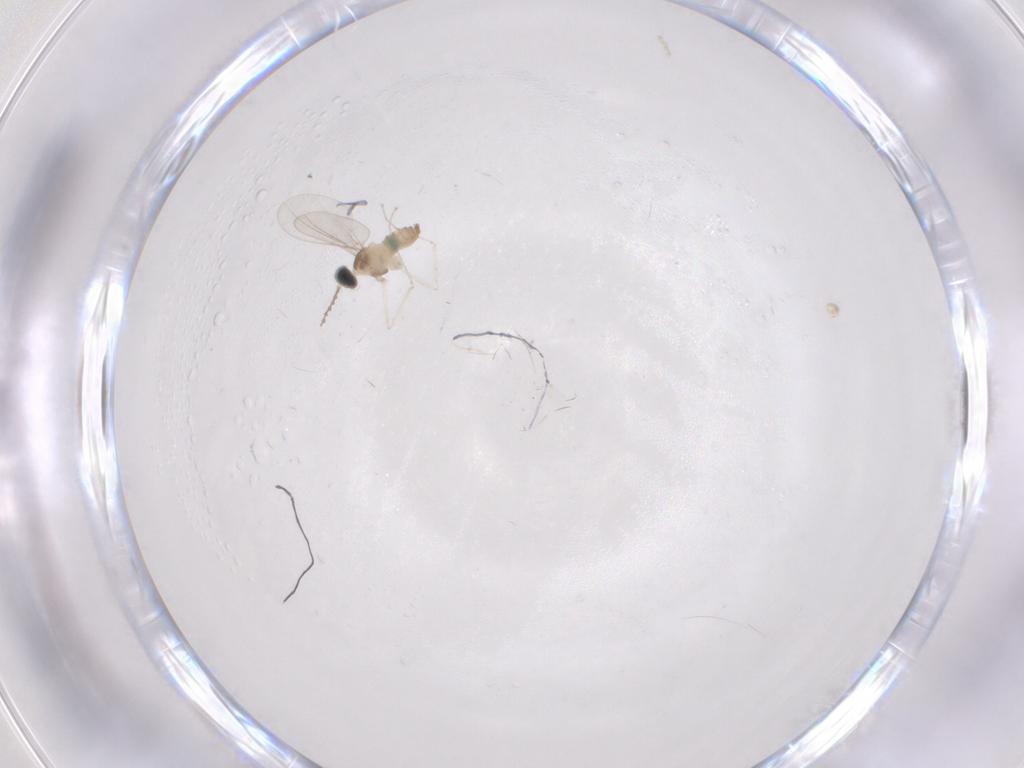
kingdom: Animalia
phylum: Arthropoda
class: Insecta
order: Diptera
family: Cecidomyiidae
